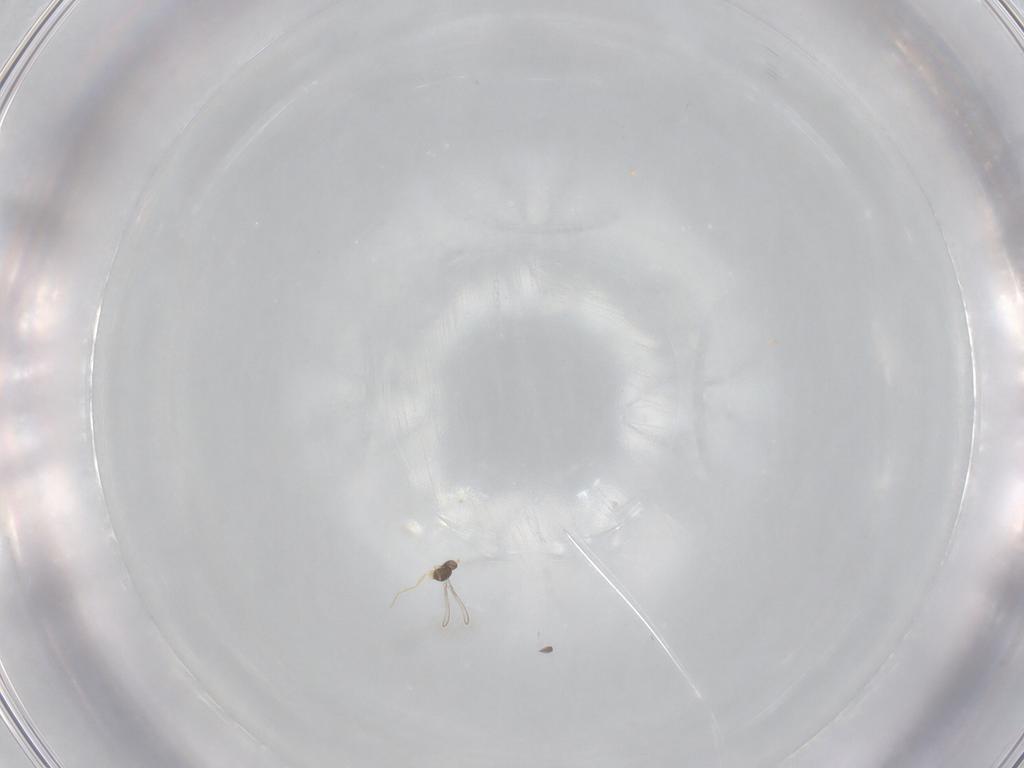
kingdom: Animalia
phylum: Arthropoda
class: Insecta
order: Hymenoptera
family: Mymaridae
